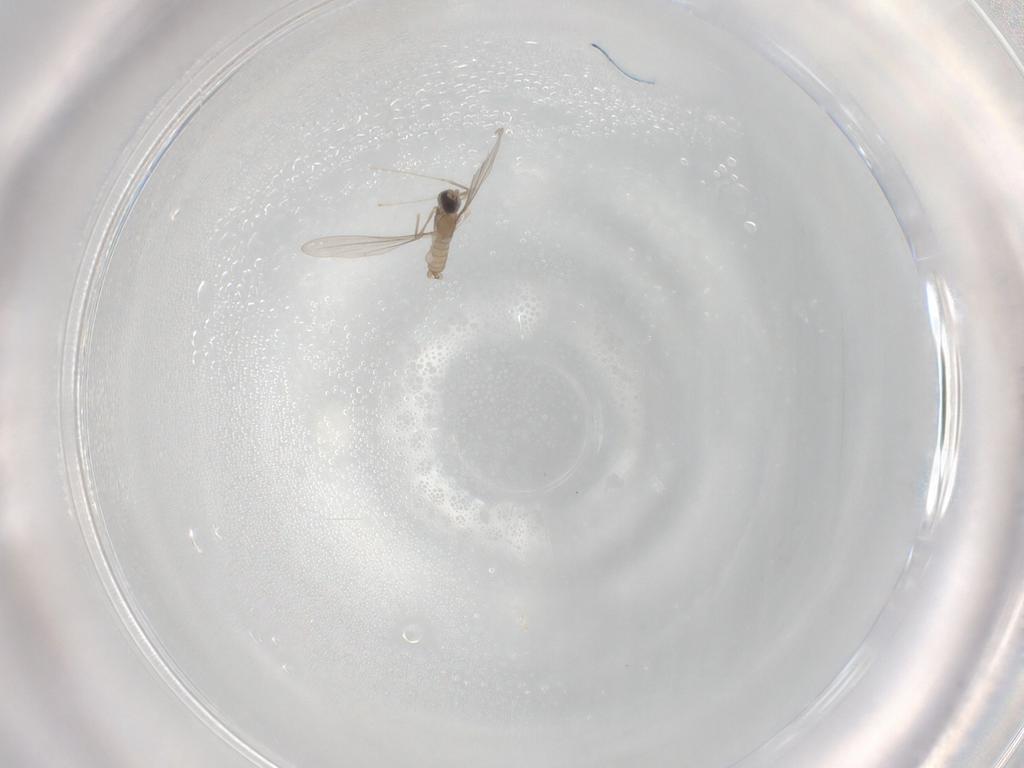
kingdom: Animalia
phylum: Arthropoda
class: Insecta
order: Diptera
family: Cecidomyiidae
